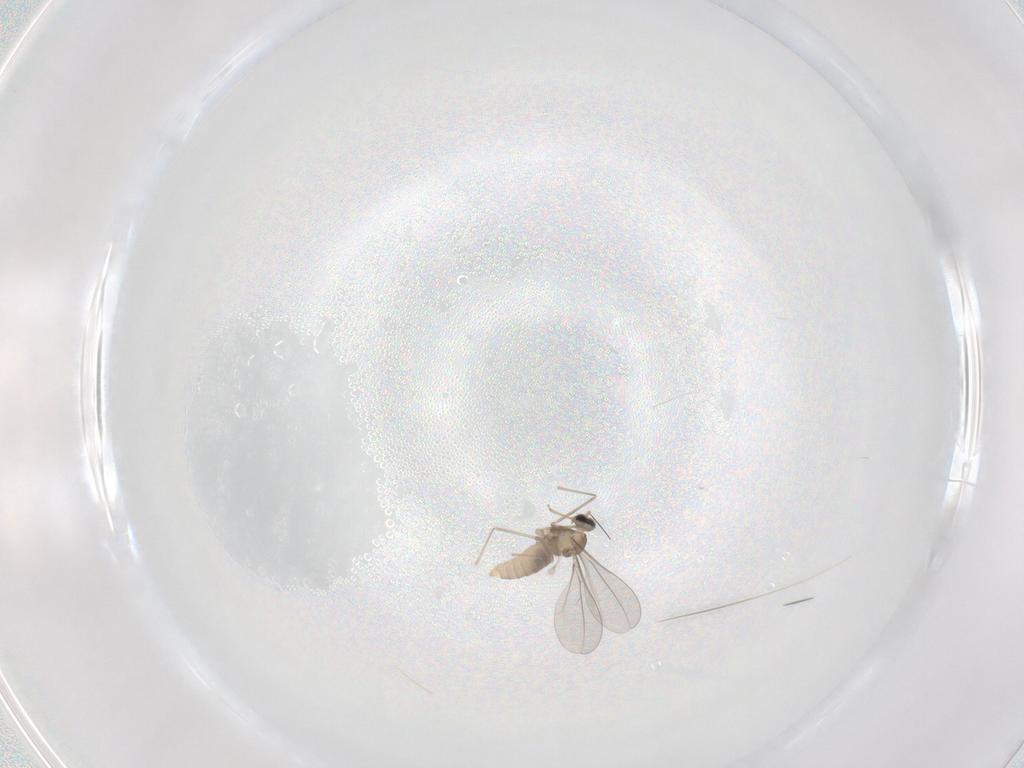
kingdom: Animalia
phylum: Arthropoda
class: Insecta
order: Diptera
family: Cecidomyiidae
